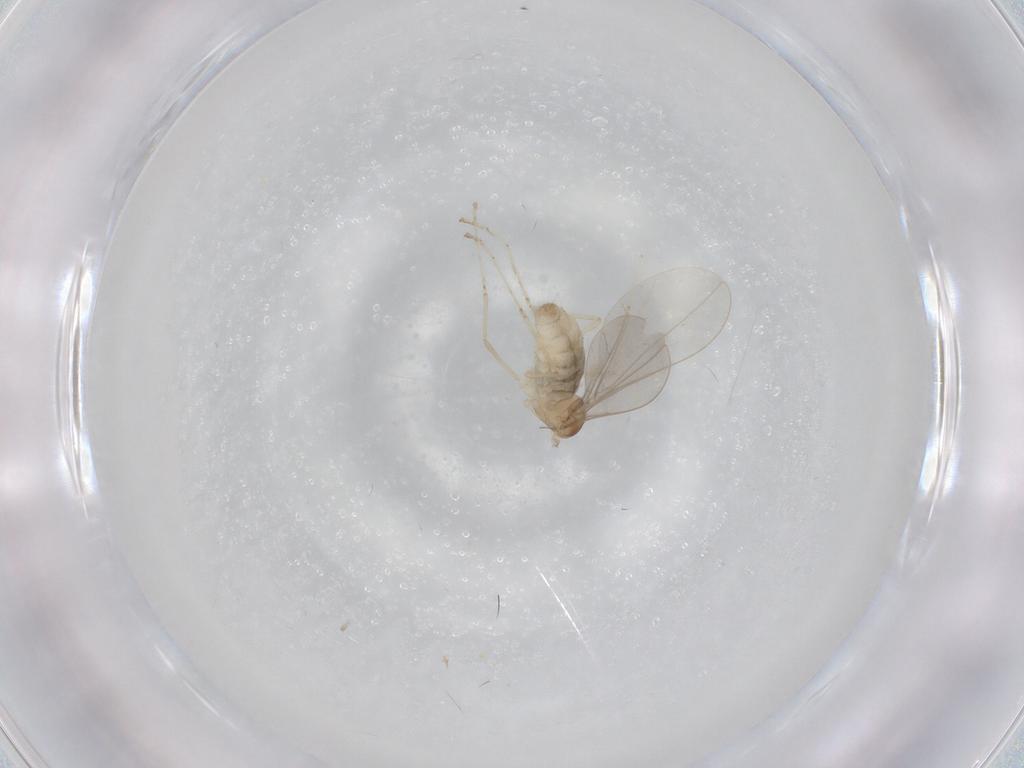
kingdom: Animalia
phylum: Arthropoda
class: Insecta
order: Diptera
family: Cecidomyiidae
